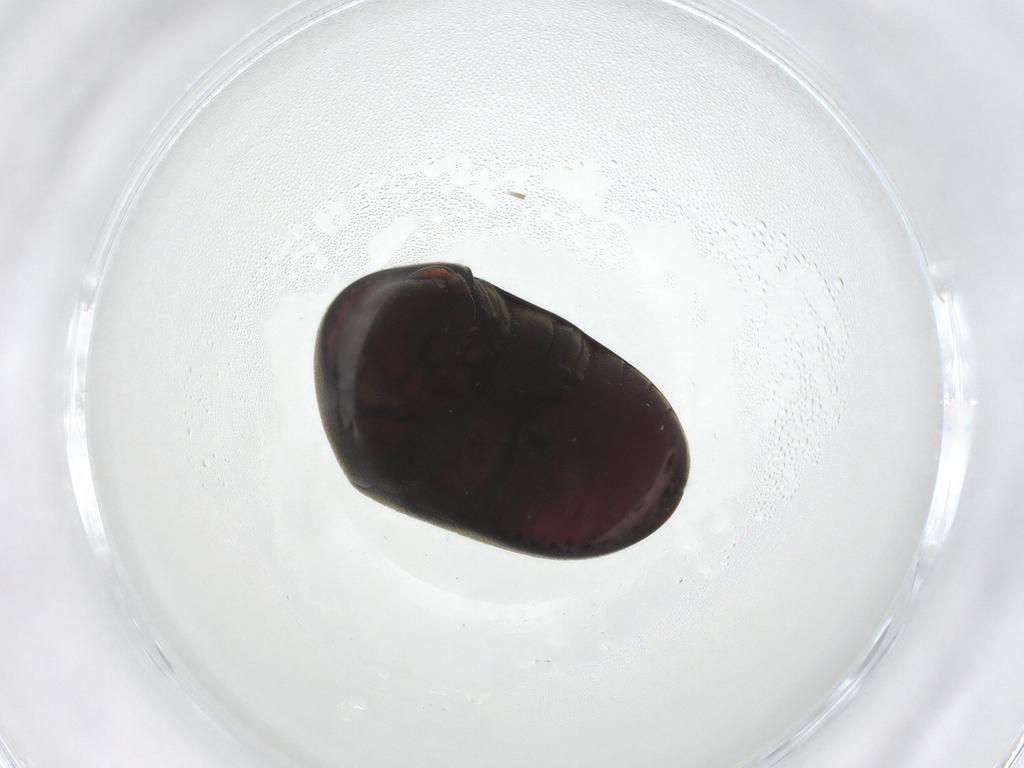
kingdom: Animalia
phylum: Arthropoda
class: Insecta
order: Coleoptera
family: Ptinidae
